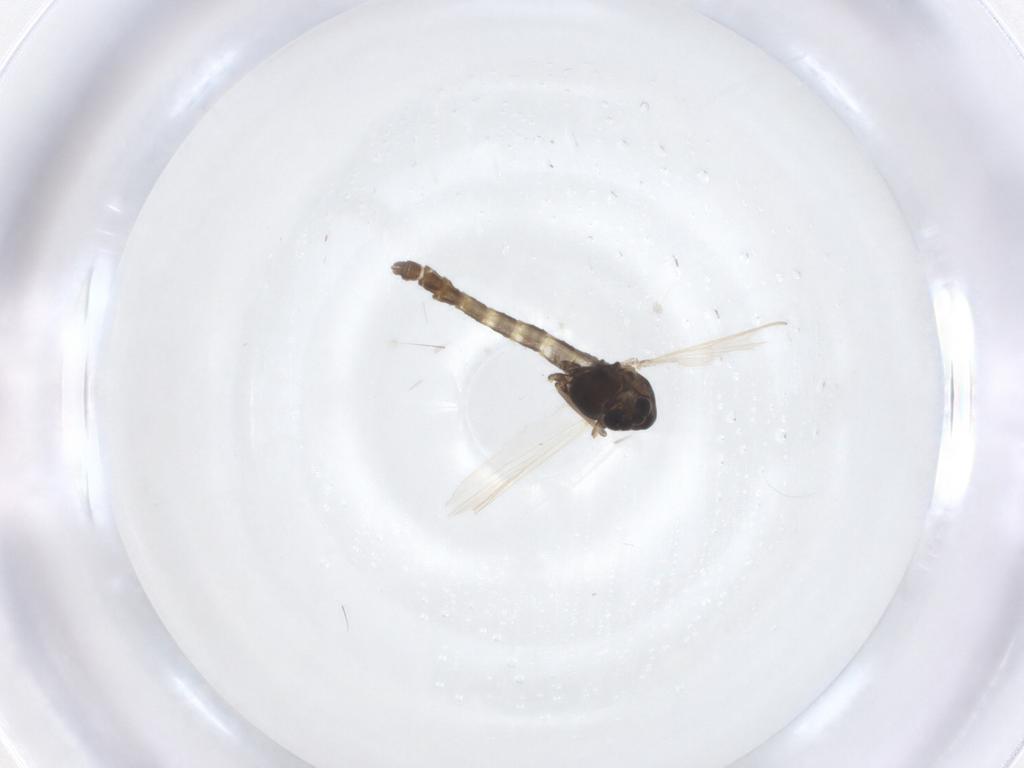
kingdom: Animalia
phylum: Arthropoda
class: Insecta
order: Diptera
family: Chironomidae
